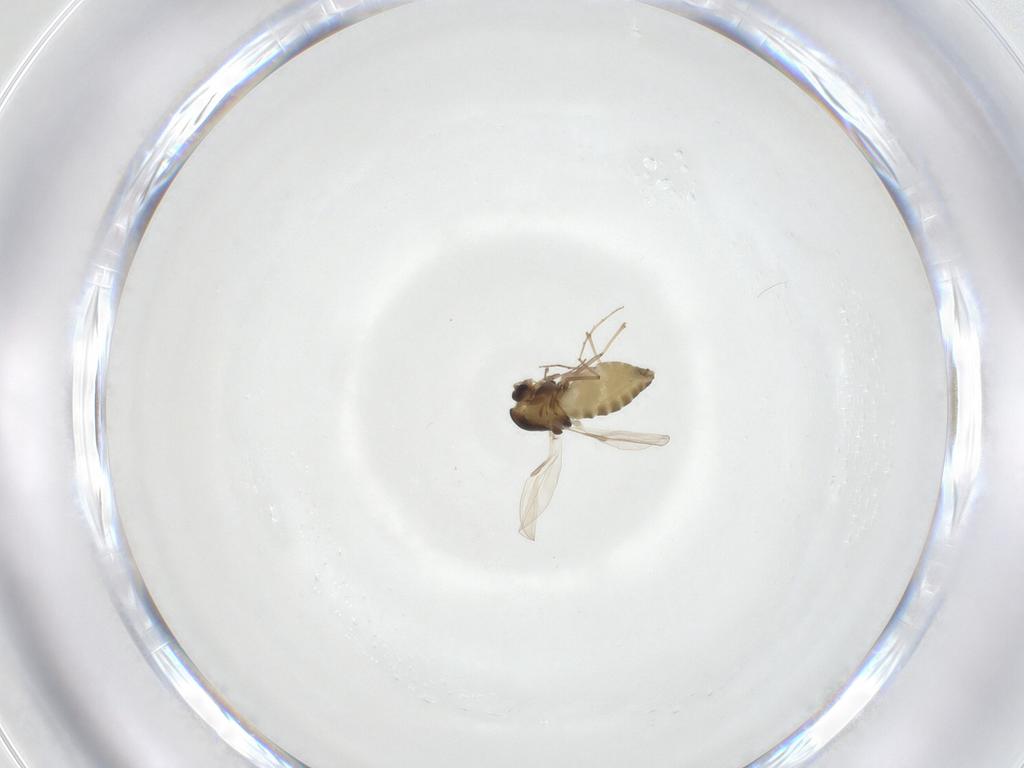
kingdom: Animalia
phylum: Arthropoda
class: Insecta
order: Diptera
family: Chironomidae
